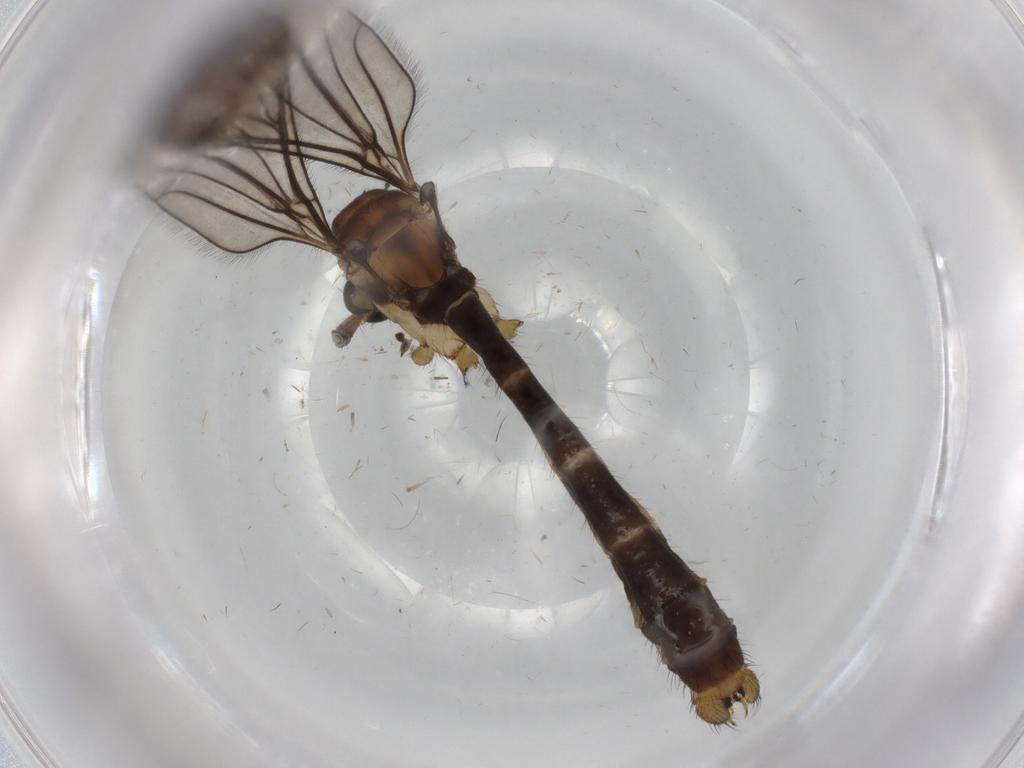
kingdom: Animalia
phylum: Arthropoda
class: Insecta
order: Diptera
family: Limoniidae
